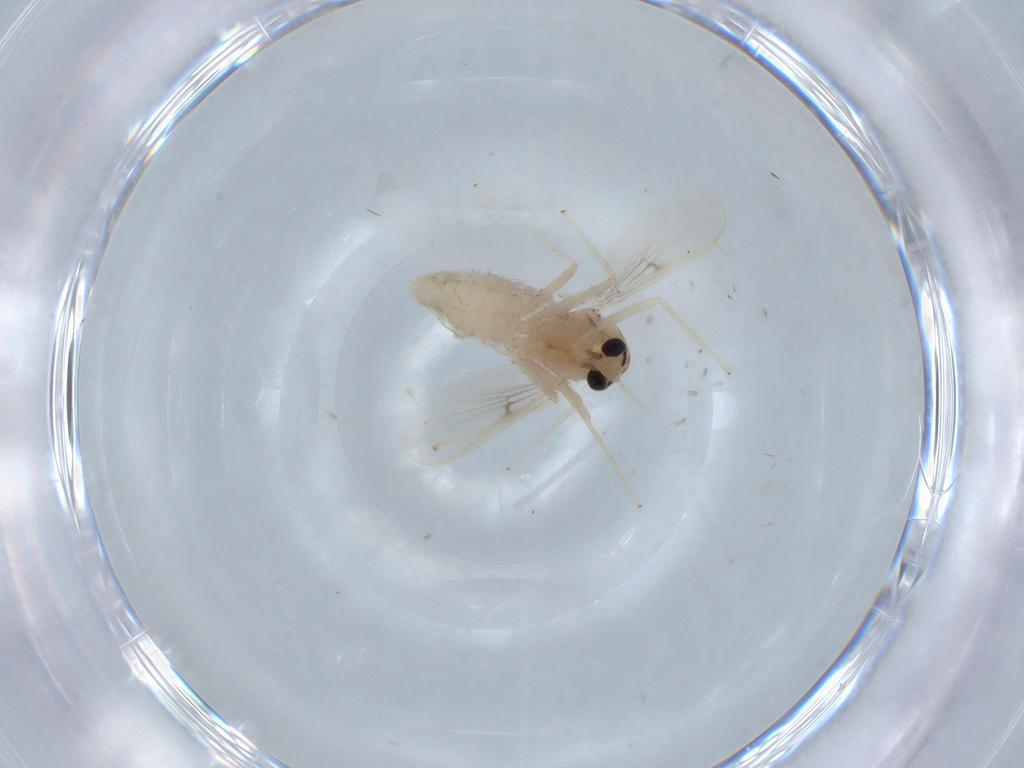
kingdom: Animalia
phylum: Arthropoda
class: Insecta
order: Diptera
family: Chironomidae
